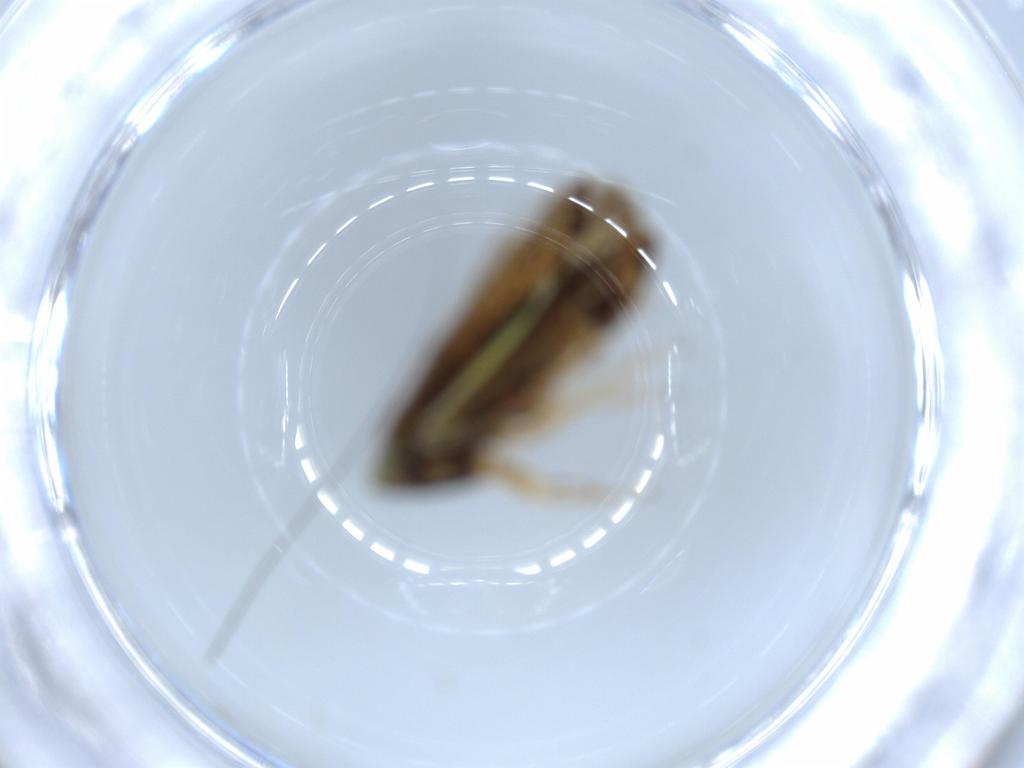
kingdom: Animalia
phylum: Arthropoda
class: Insecta
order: Hemiptera
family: Cicadellidae
